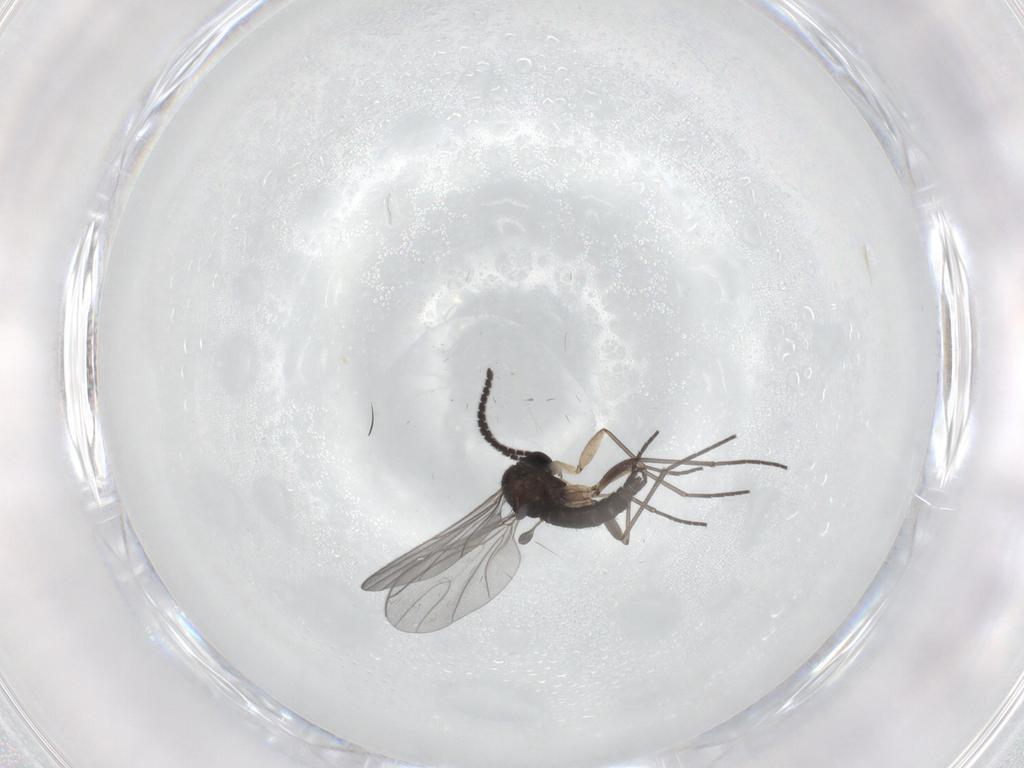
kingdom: Animalia
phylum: Arthropoda
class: Insecta
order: Diptera
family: Sciaridae
